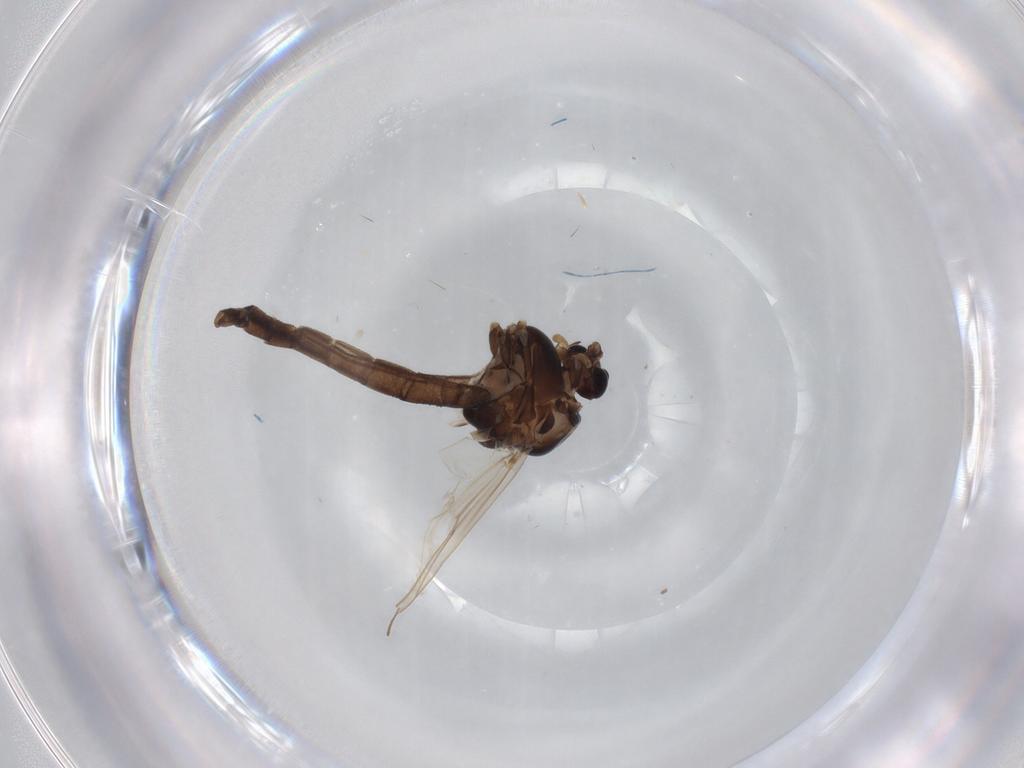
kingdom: Animalia
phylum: Arthropoda
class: Insecta
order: Diptera
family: Chironomidae
